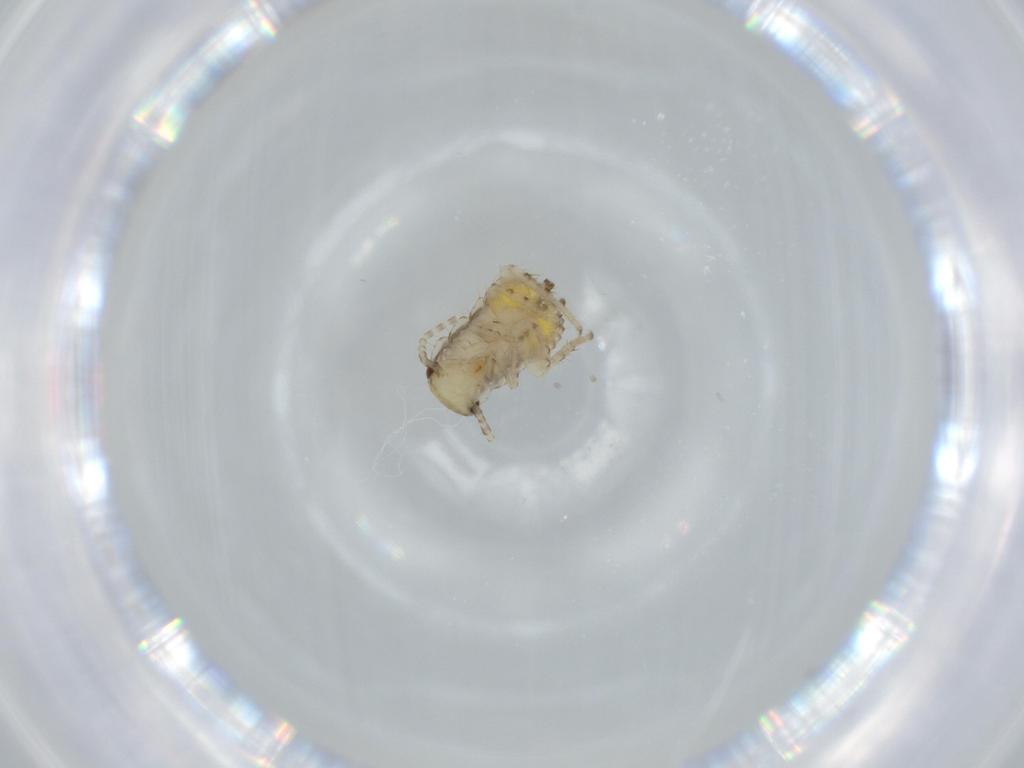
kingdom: Animalia
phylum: Arthropoda
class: Insecta
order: Blattodea
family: Ectobiidae
